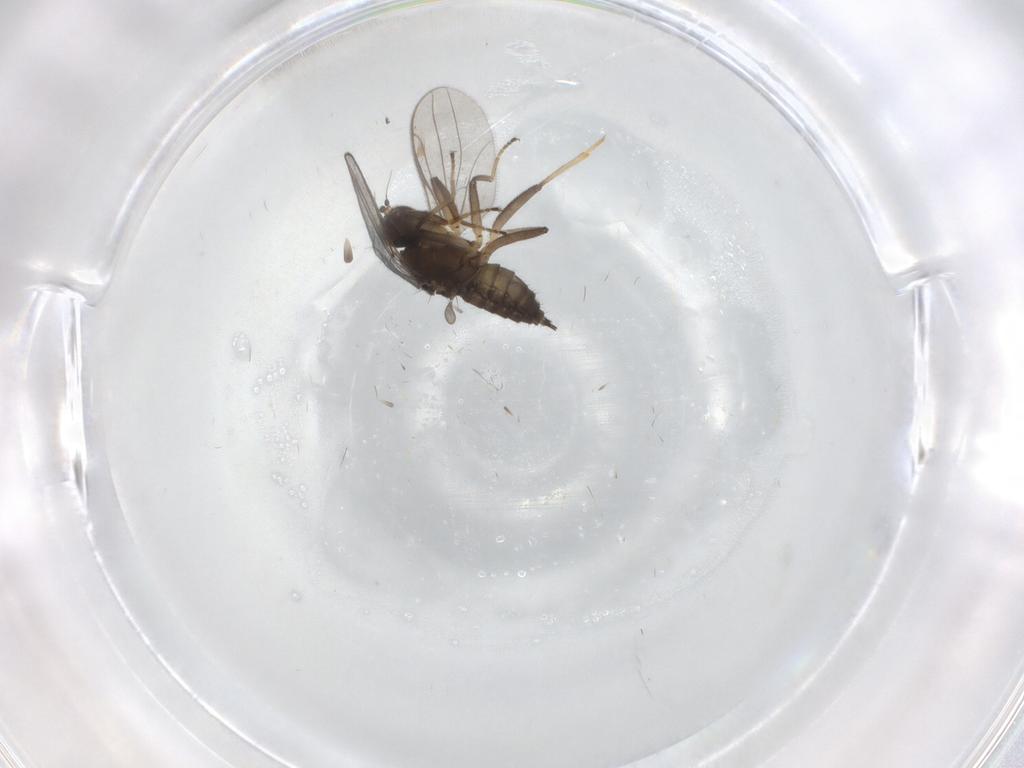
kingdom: Animalia
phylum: Arthropoda
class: Insecta
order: Diptera
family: Hybotidae
